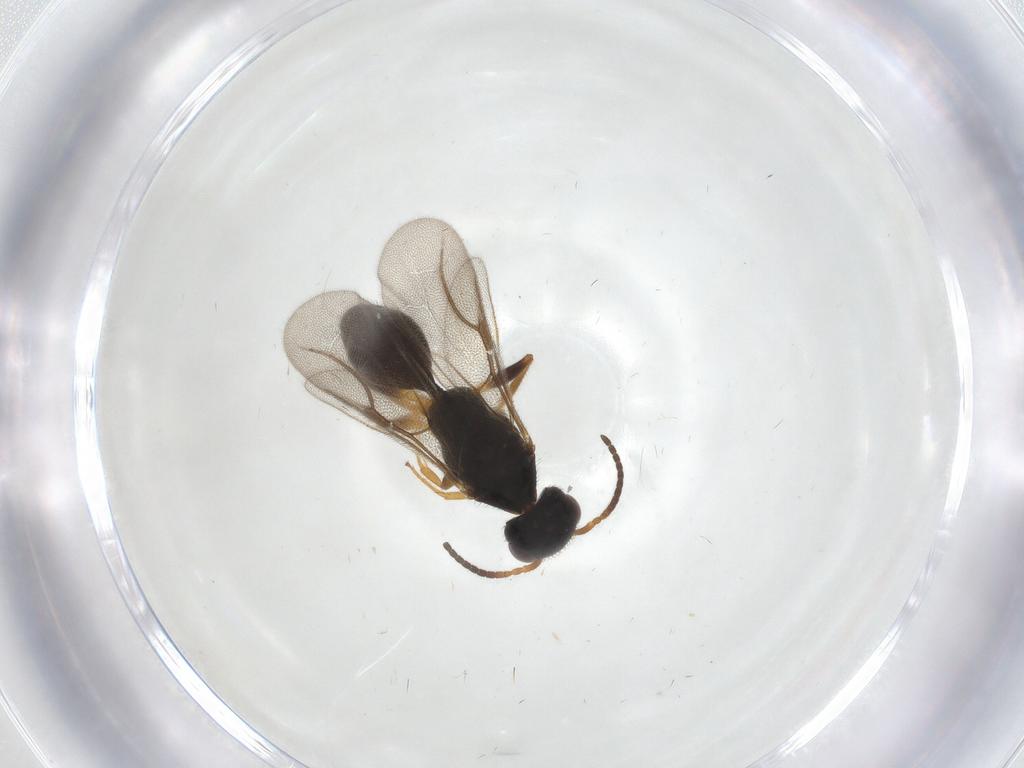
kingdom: Animalia
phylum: Arthropoda
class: Insecta
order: Hymenoptera
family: Bethylidae
